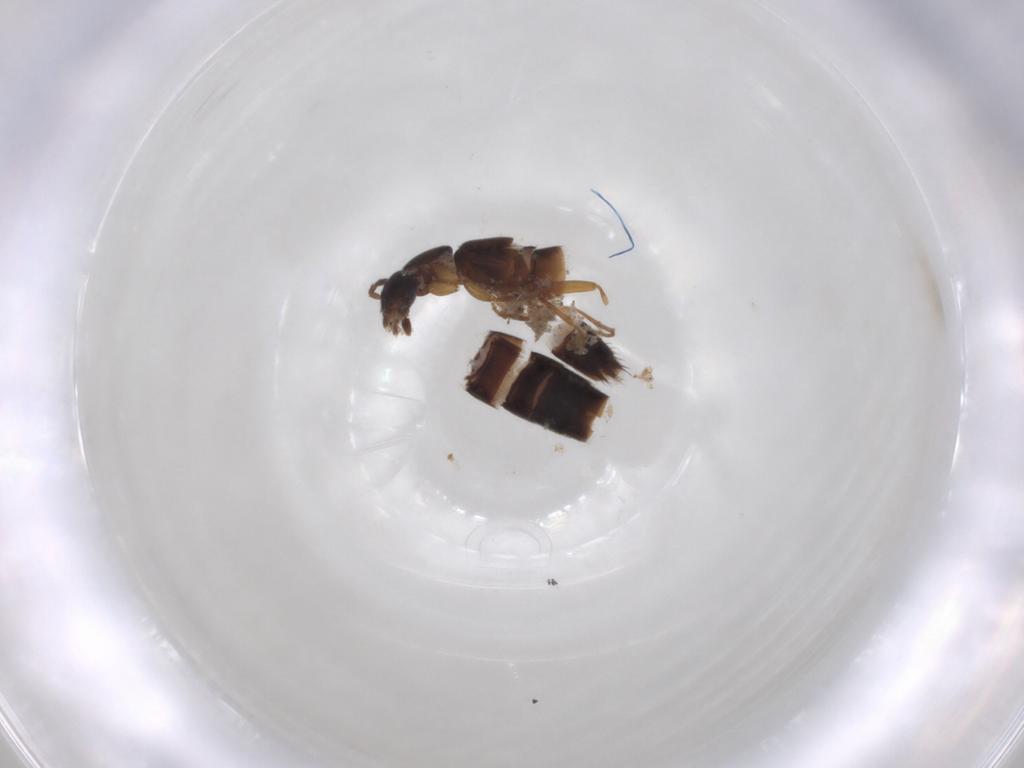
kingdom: Animalia
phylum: Arthropoda
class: Insecta
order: Coleoptera
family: Staphylinidae
